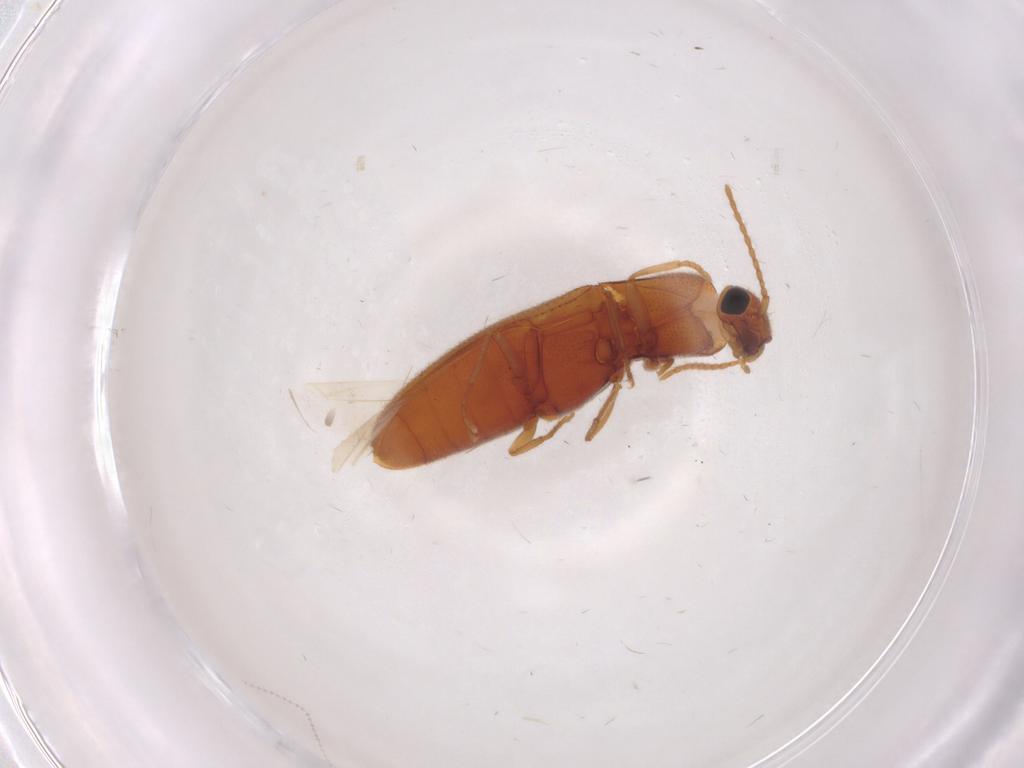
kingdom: Animalia
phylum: Arthropoda
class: Insecta
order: Coleoptera
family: Elateridae
